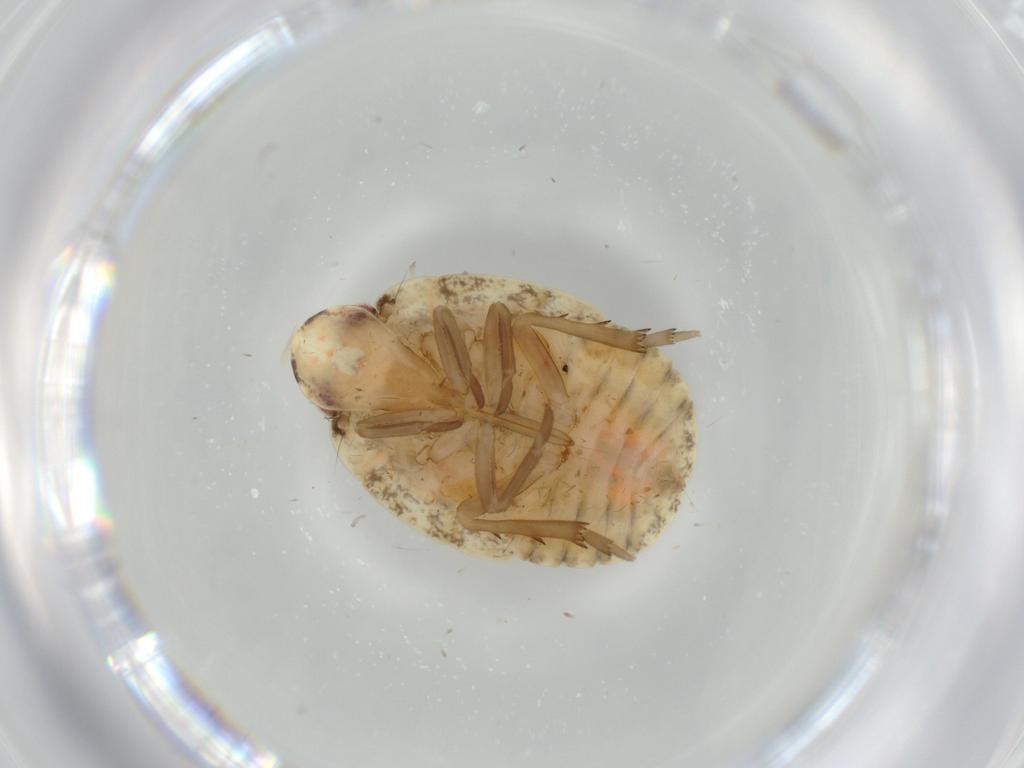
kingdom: Animalia
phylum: Arthropoda
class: Insecta
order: Hemiptera
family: Flatidae
